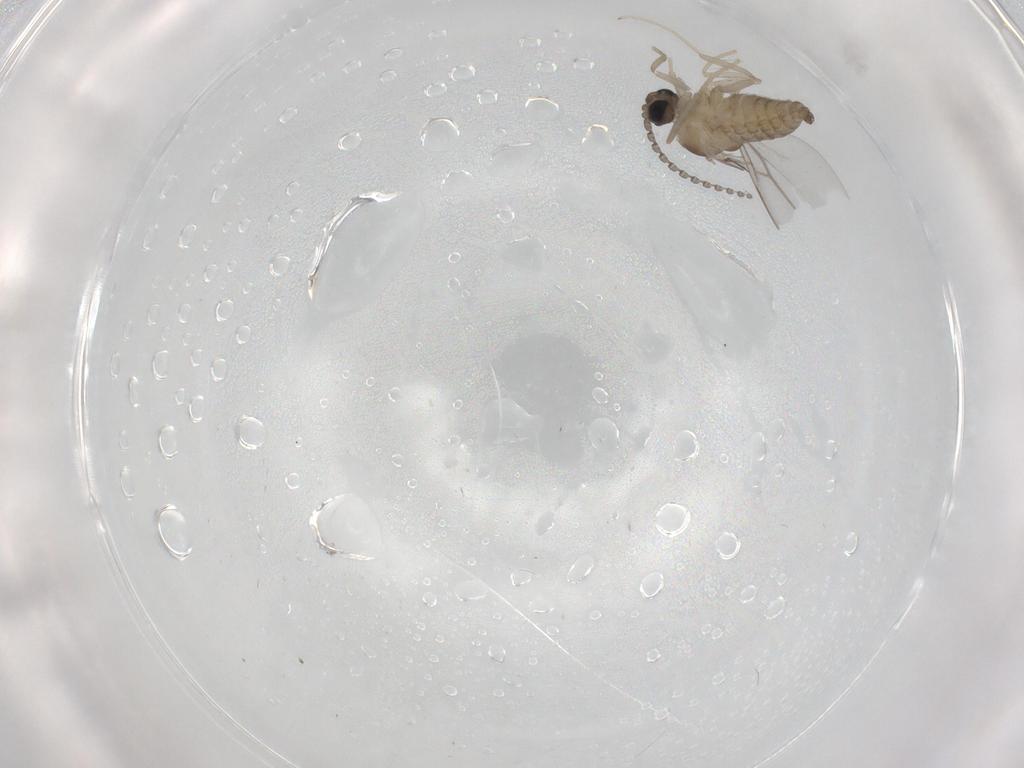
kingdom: Animalia
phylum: Arthropoda
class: Insecta
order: Diptera
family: Cecidomyiidae
